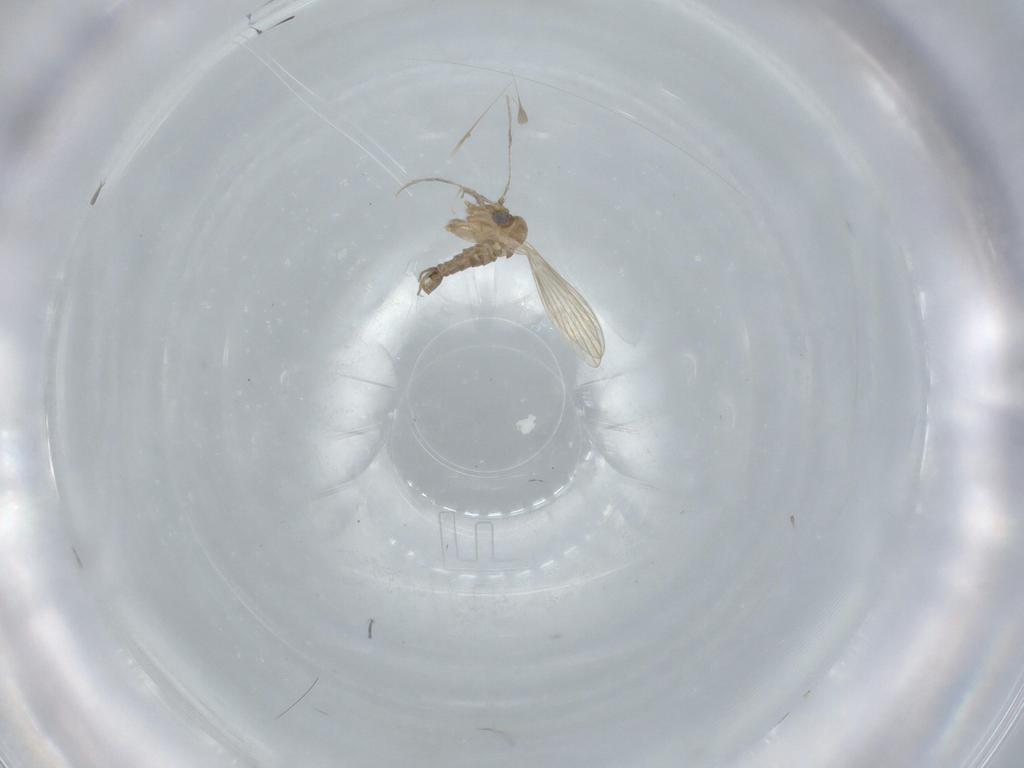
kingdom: Animalia
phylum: Arthropoda
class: Insecta
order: Diptera
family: Psychodidae
